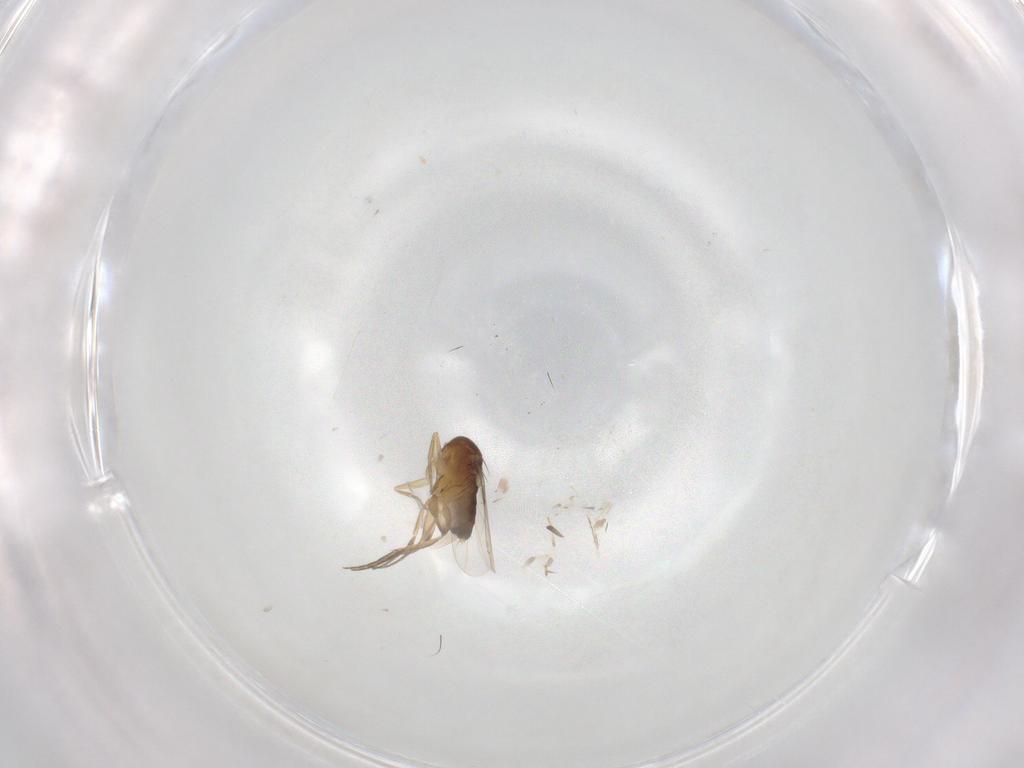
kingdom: Animalia
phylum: Arthropoda
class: Insecta
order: Diptera
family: Phoridae
